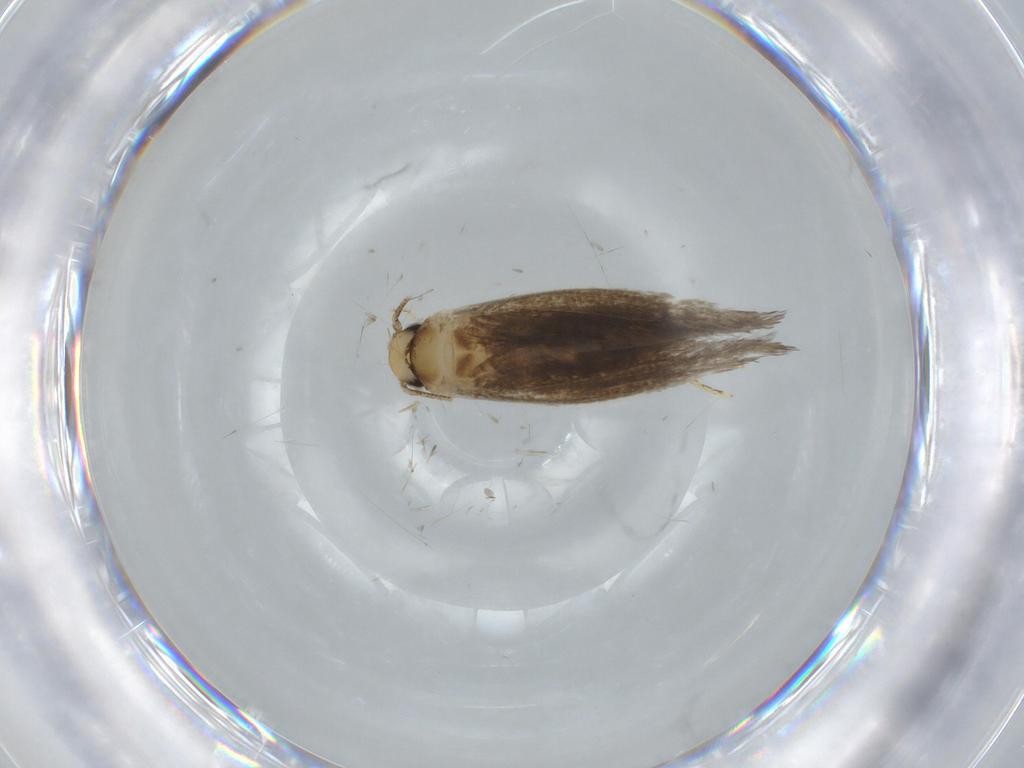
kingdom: Animalia
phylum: Arthropoda
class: Insecta
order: Lepidoptera
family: Tineidae
